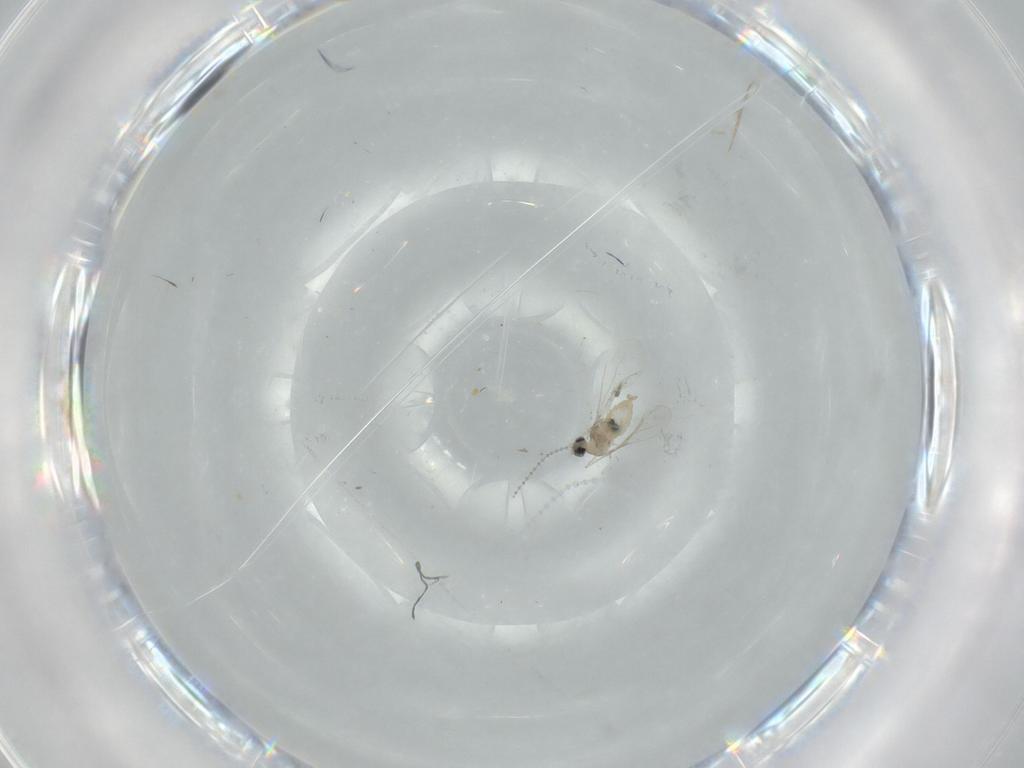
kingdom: Animalia
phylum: Arthropoda
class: Insecta
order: Diptera
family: Cecidomyiidae
